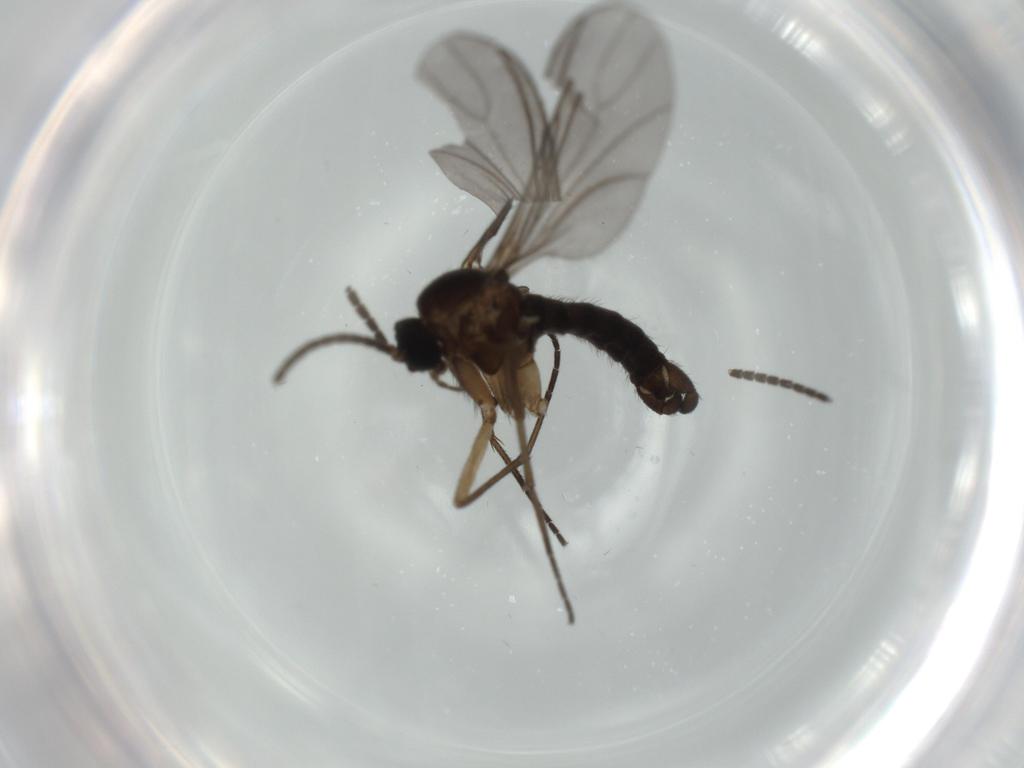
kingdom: Animalia
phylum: Arthropoda
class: Insecta
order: Diptera
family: Sciaridae
